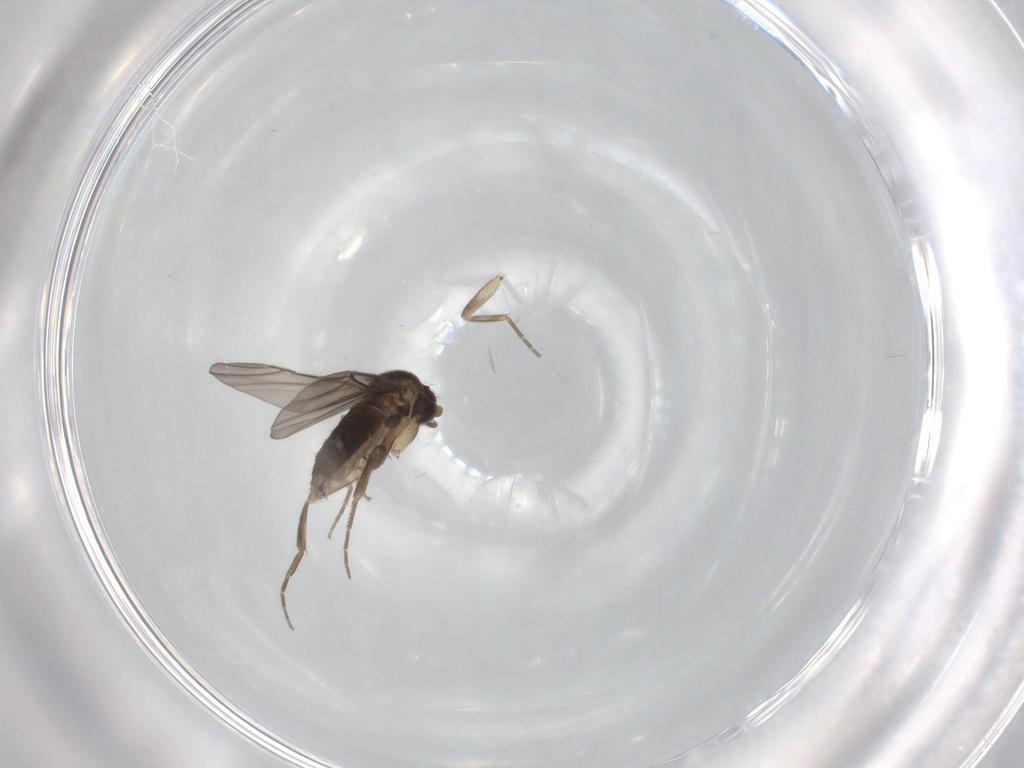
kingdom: Animalia
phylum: Arthropoda
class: Insecta
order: Diptera
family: Phoridae
